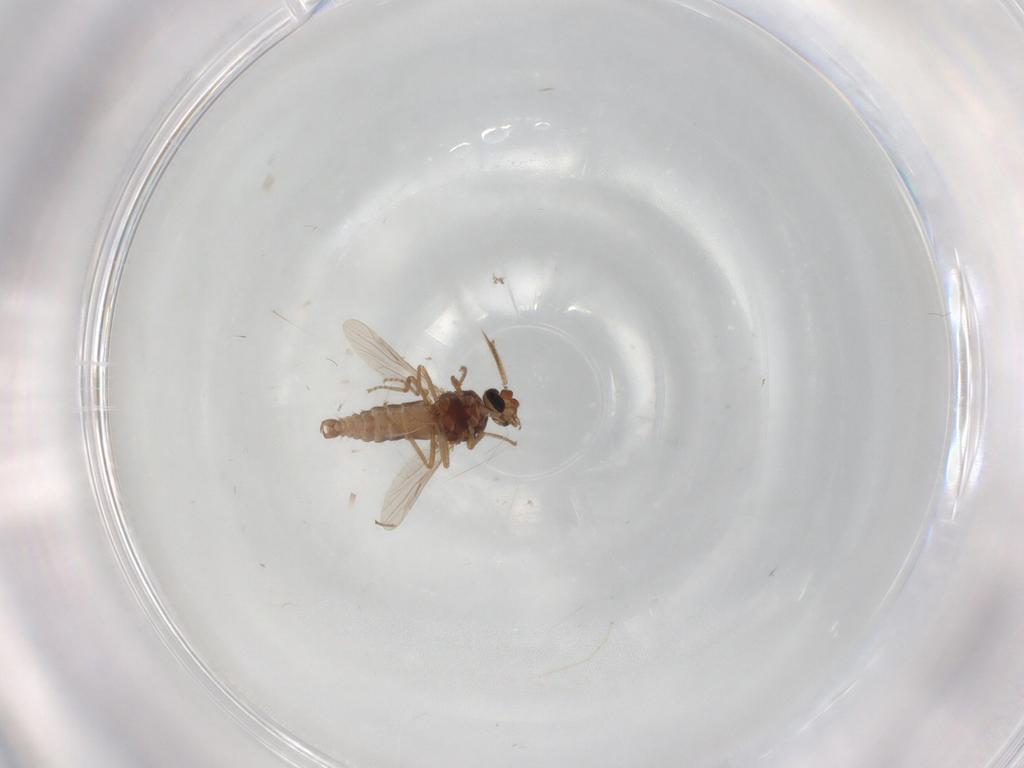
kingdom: Animalia
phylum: Arthropoda
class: Insecta
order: Diptera
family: Ceratopogonidae
